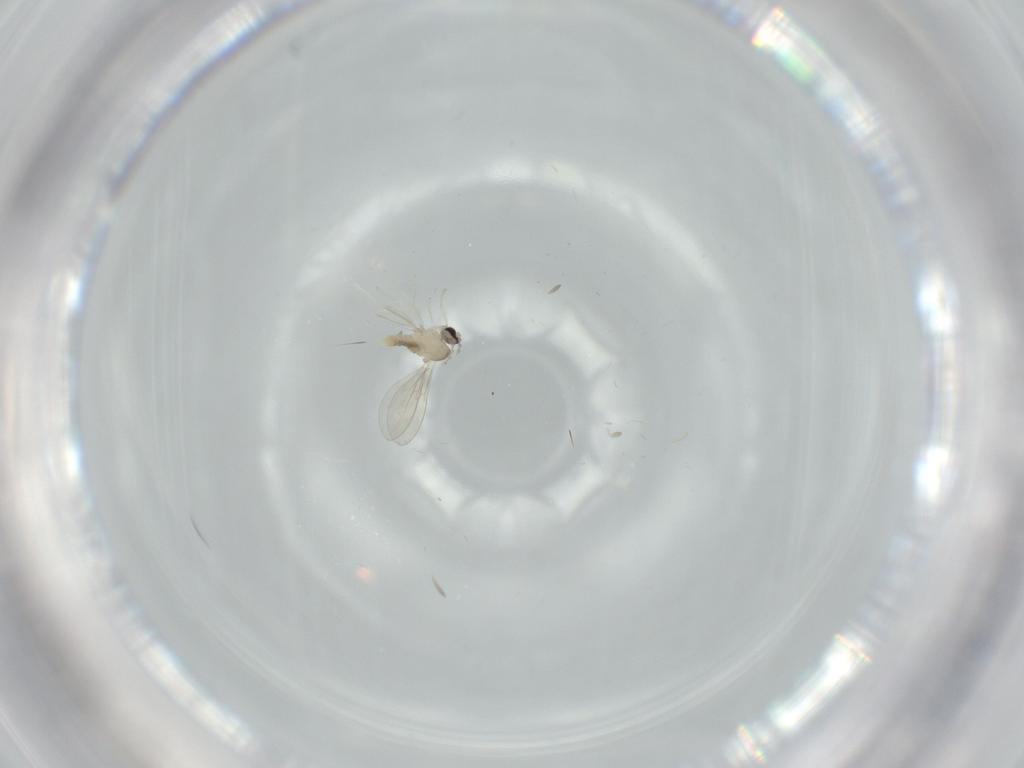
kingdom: Animalia
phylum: Arthropoda
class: Insecta
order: Diptera
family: Cecidomyiidae
